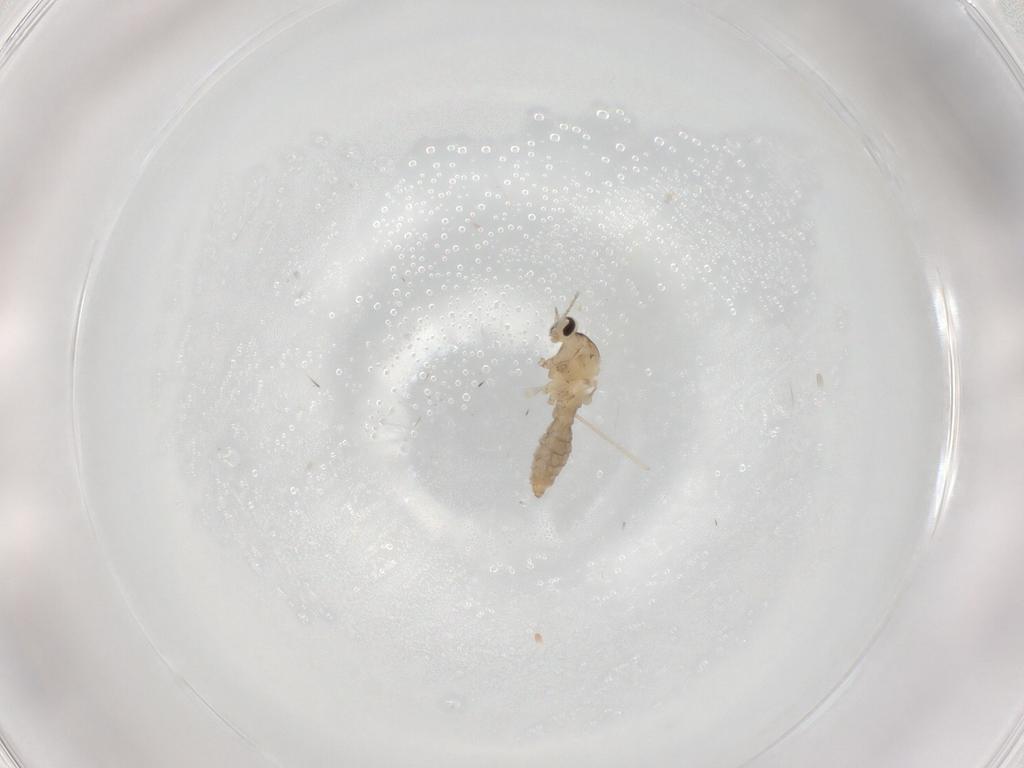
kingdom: Animalia
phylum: Arthropoda
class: Insecta
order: Diptera
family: Cecidomyiidae
